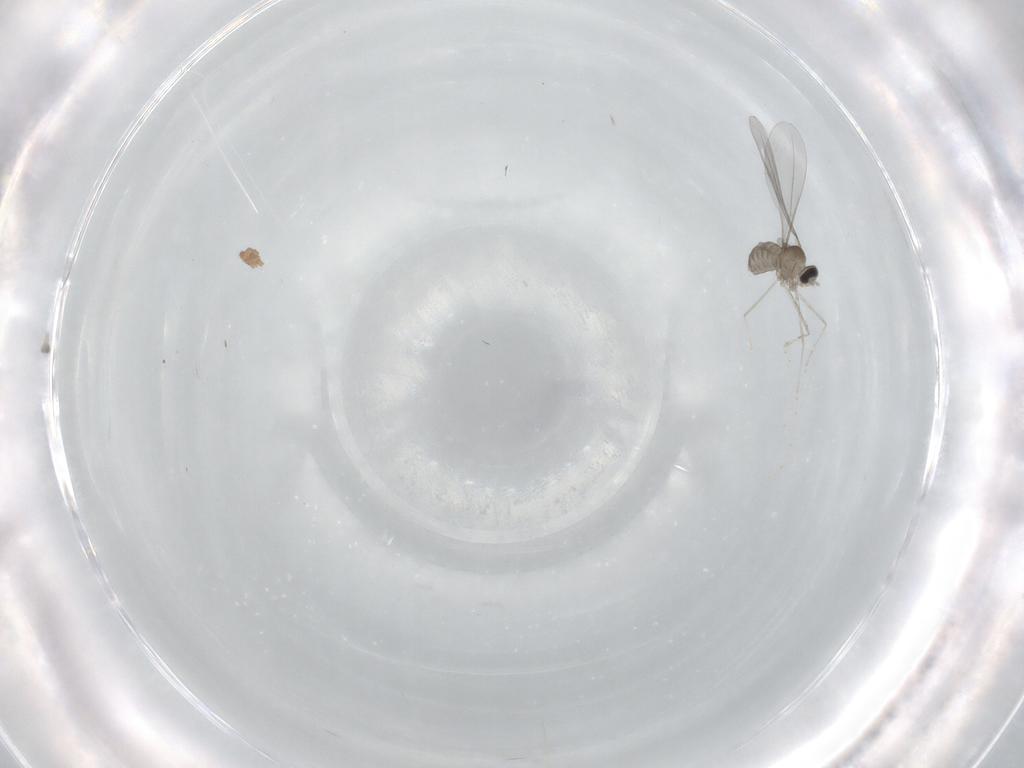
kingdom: Animalia
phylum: Arthropoda
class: Insecta
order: Diptera
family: Cecidomyiidae
